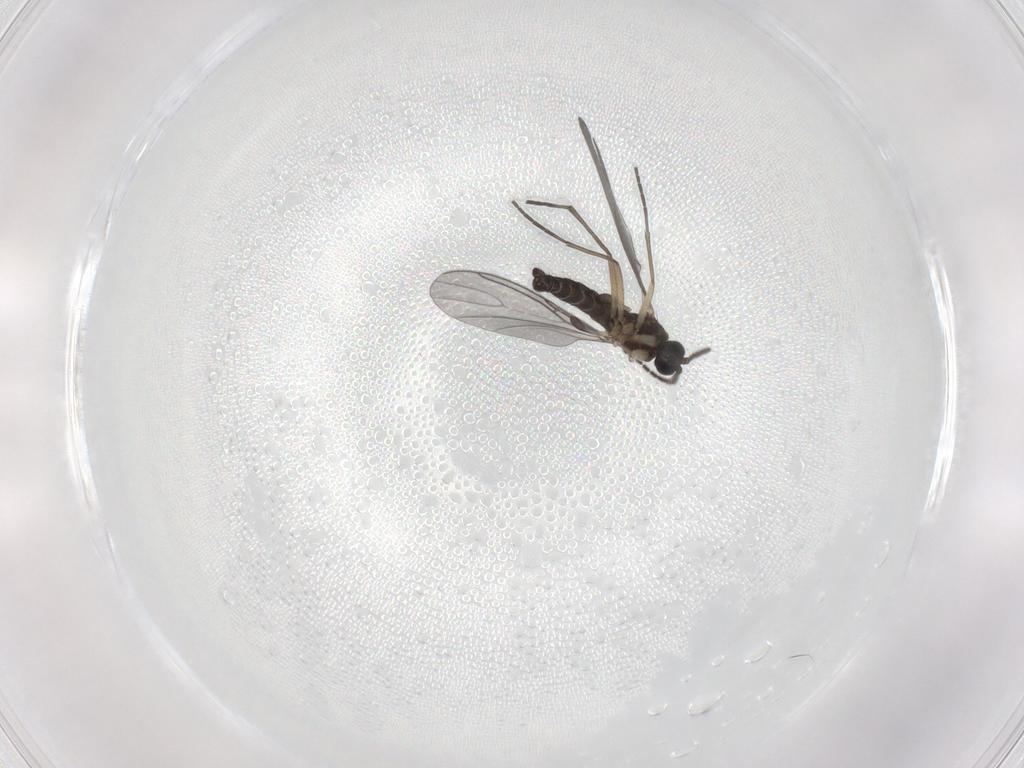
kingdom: Animalia
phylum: Arthropoda
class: Insecta
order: Diptera
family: Sciaridae
